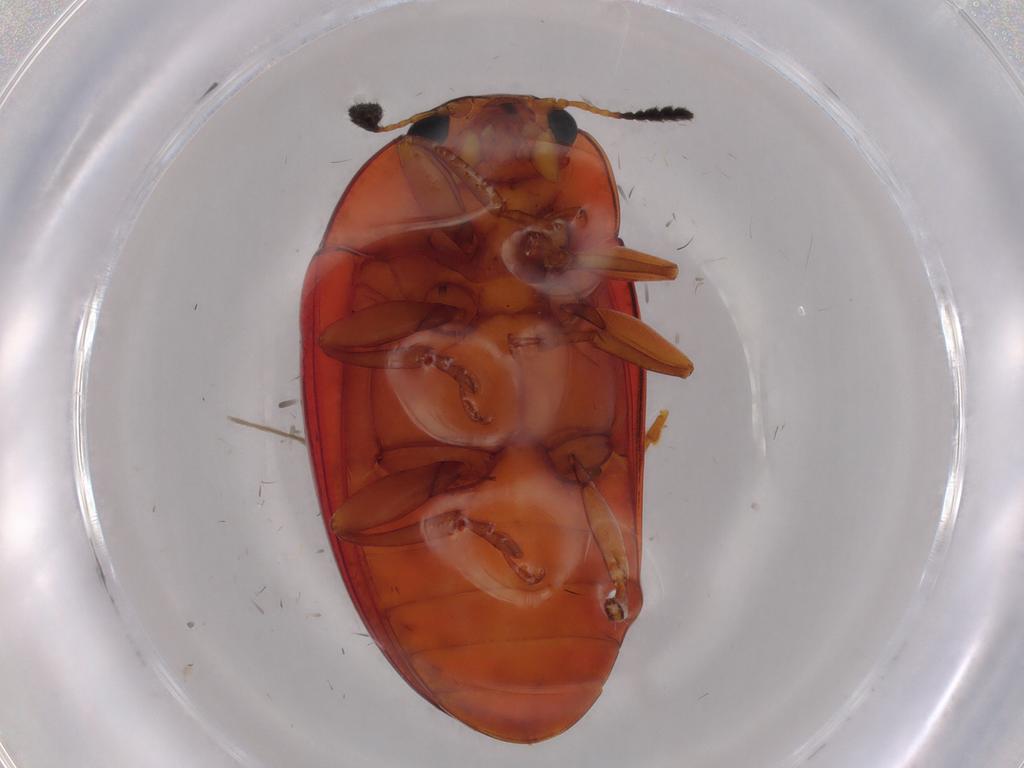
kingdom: Animalia
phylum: Arthropoda
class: Insecta
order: Coleoptera
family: Erotylidae
